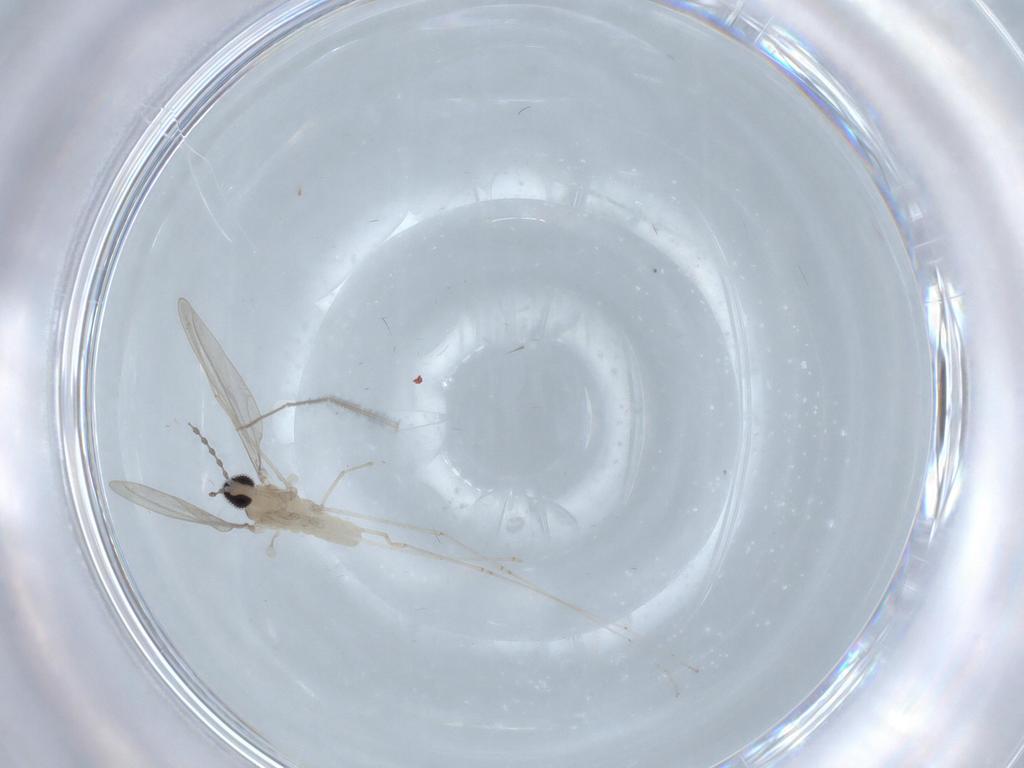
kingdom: Animalia
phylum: Arthropoda
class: Insecta
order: Diptera
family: Cecidomyiidae
